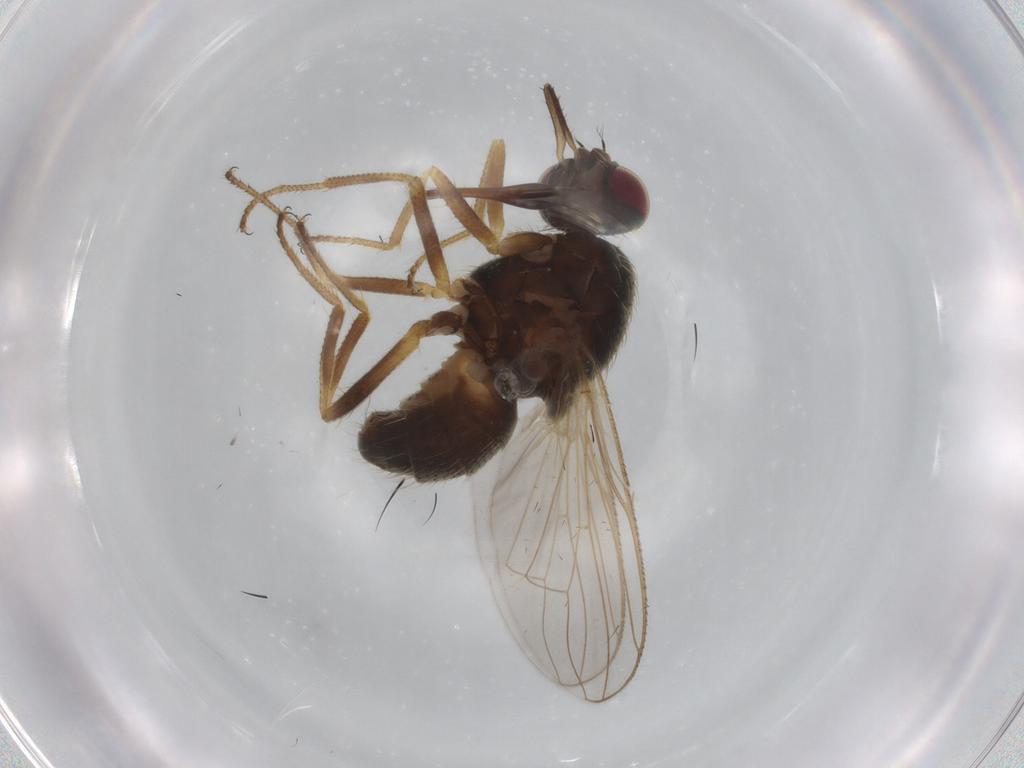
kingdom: Animalia
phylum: Arthropoda
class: Insecta
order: Diptera
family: Muscidae
